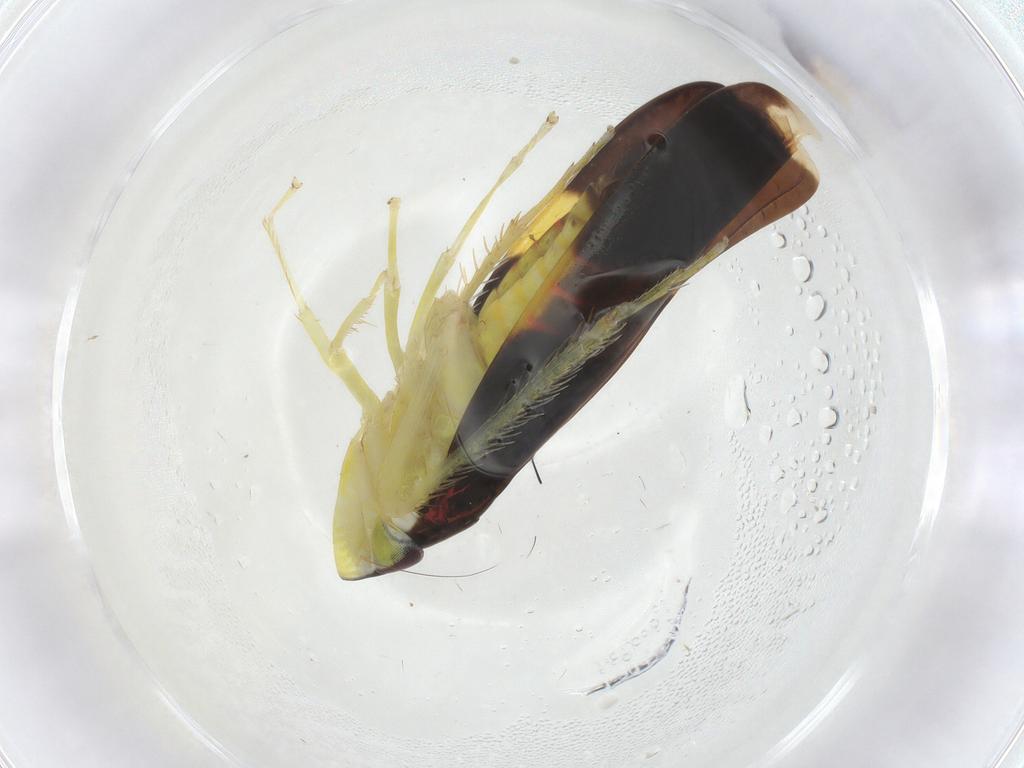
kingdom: Animalia
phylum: Arthropoda
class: Insecta
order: Hemiptera
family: Cicadellidae
